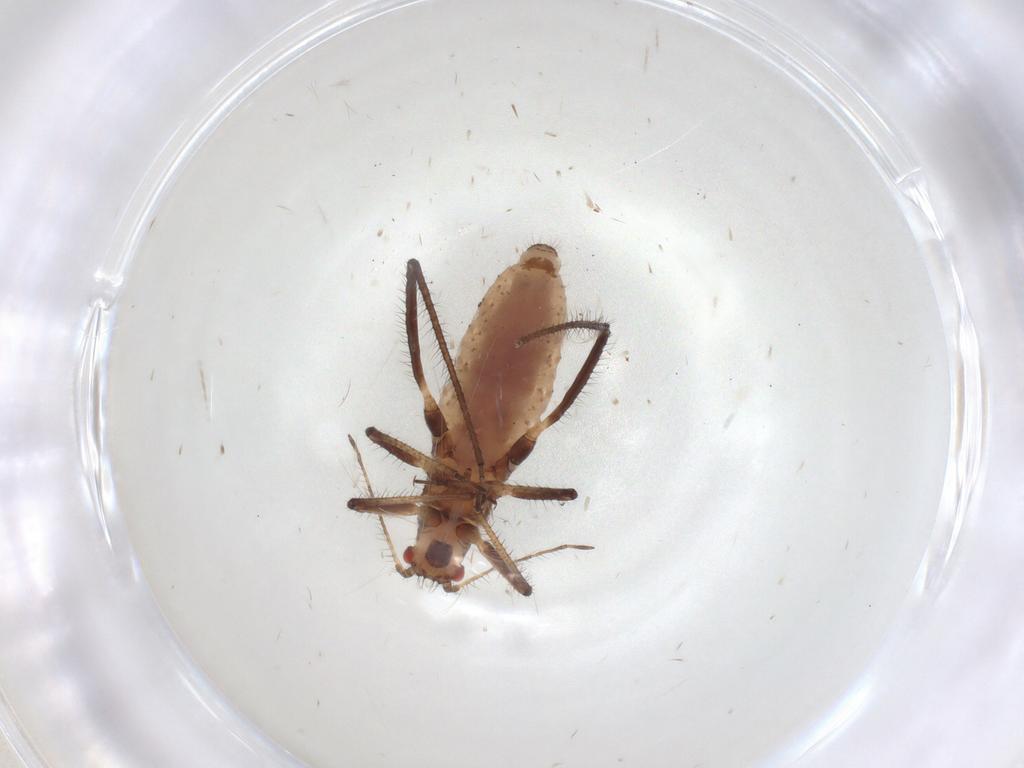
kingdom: Animalia
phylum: Arthropoda
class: Insecta
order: Hemiptera
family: Aphididae
